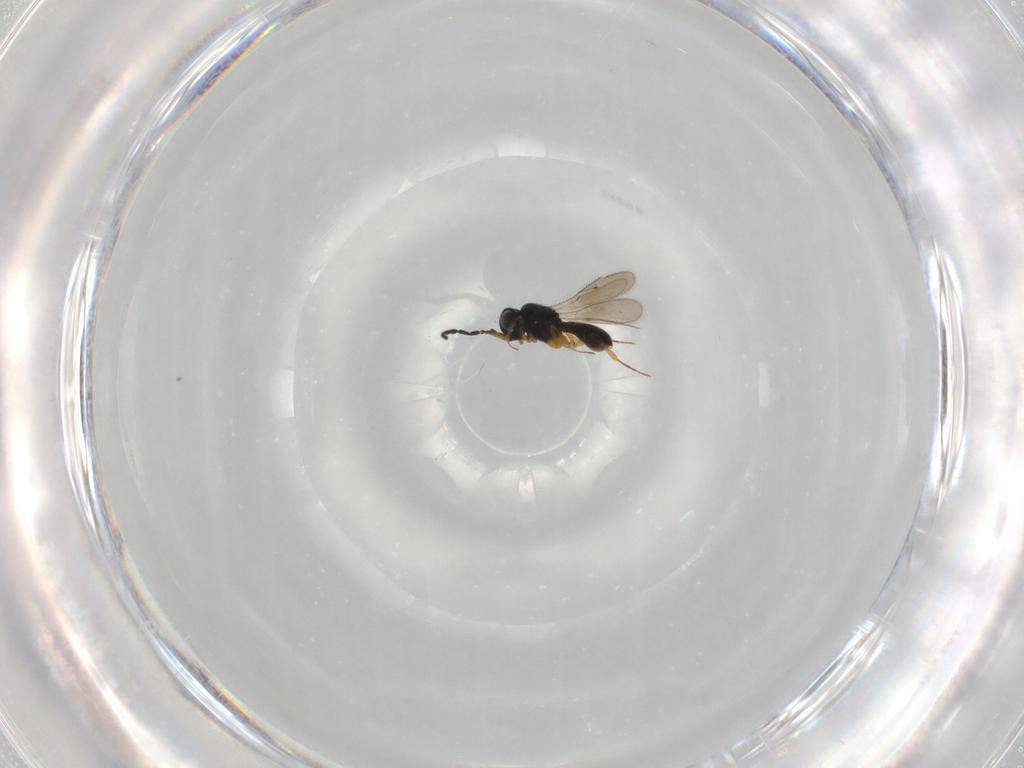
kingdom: Animalia
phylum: Arthropoda
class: Insecta
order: Hymenoptera
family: Scelionidae
